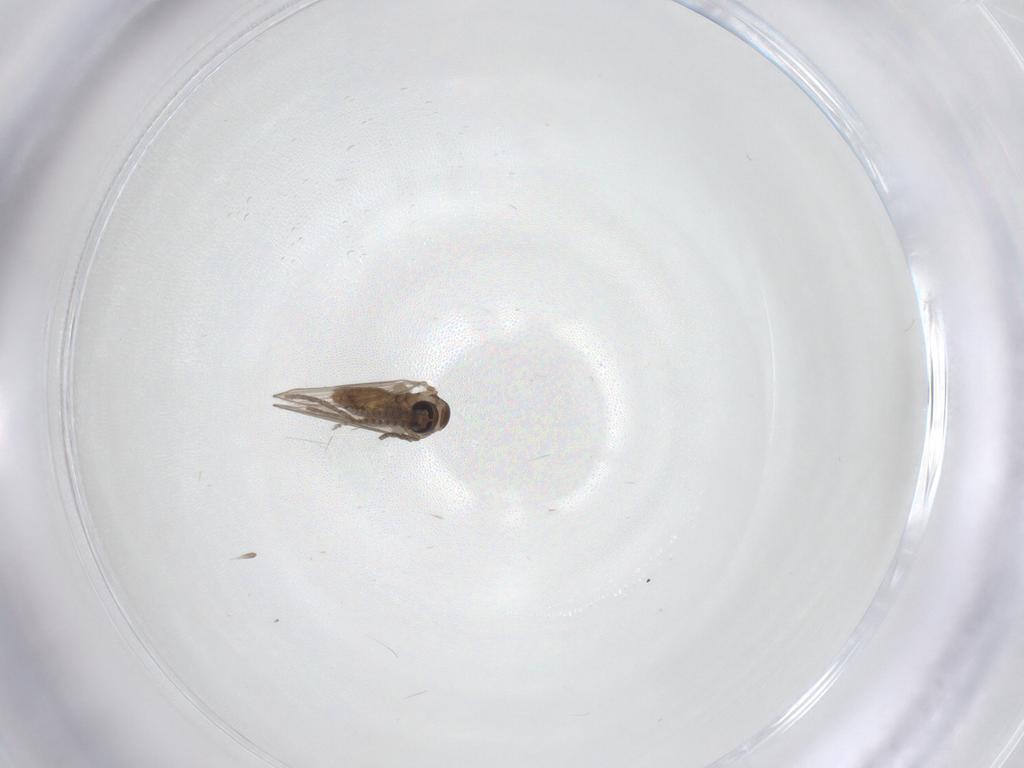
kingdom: Animalia
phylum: Arthropoda
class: Insecta
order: Diptera
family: Psychodidae
